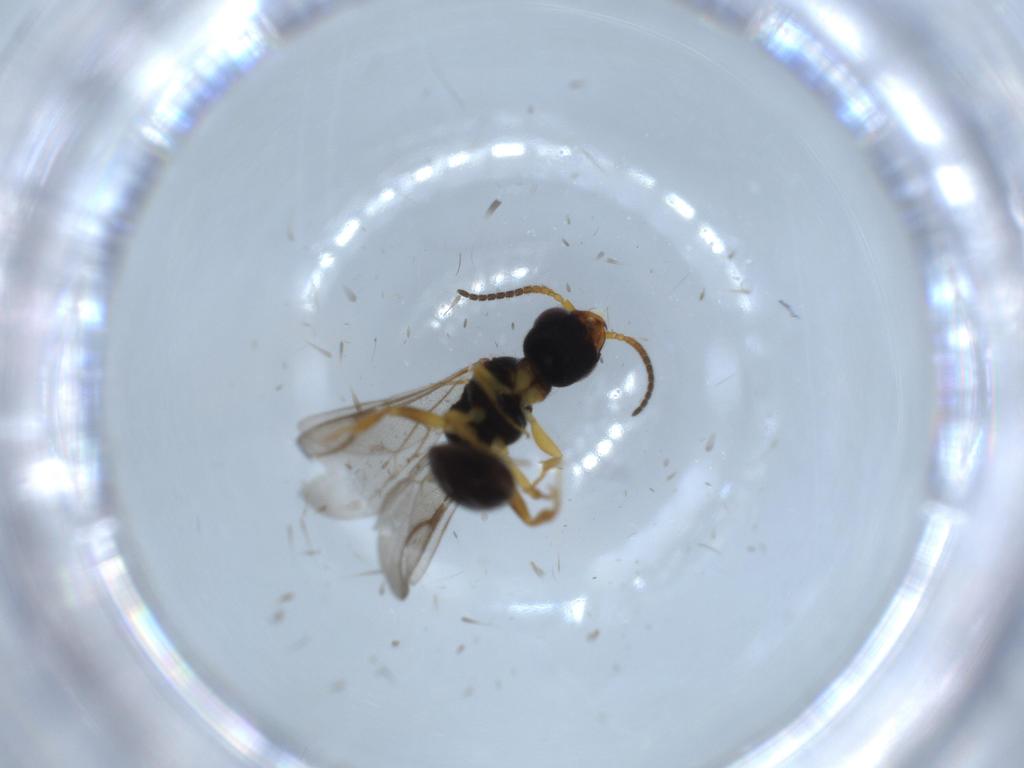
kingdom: Animalia
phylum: Arthropoda
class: Insecta
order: Hymenoptera
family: Bethylidae
